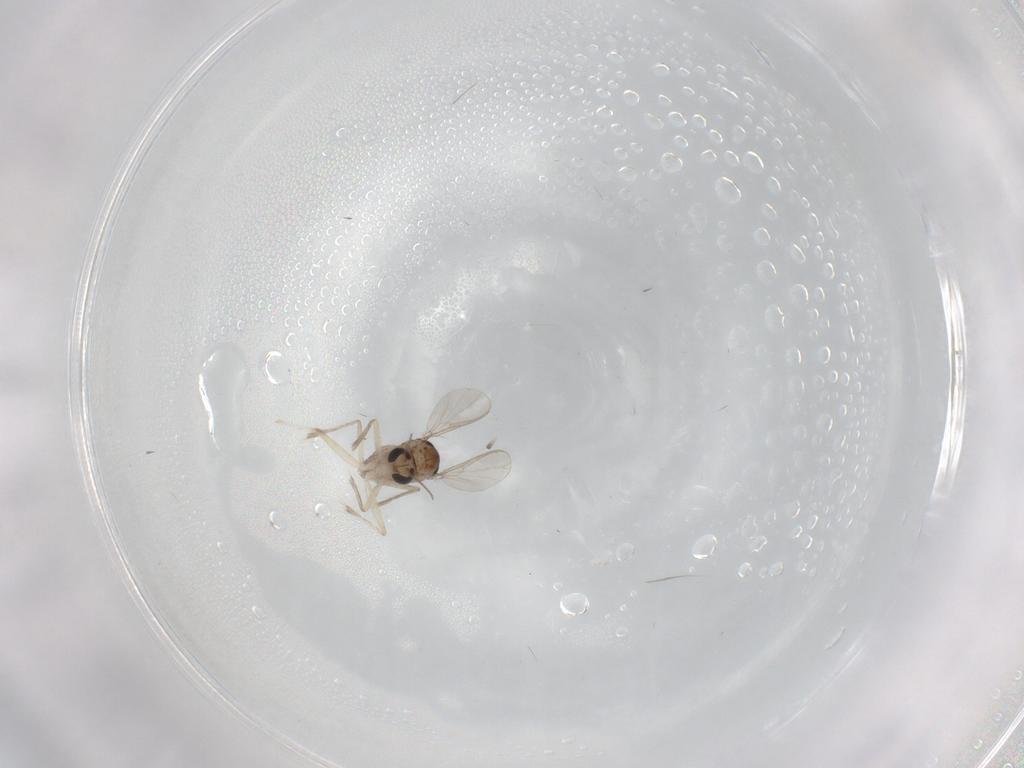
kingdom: Animalia
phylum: Arthropoda
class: Insecta
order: Diptera
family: Chironomidae
